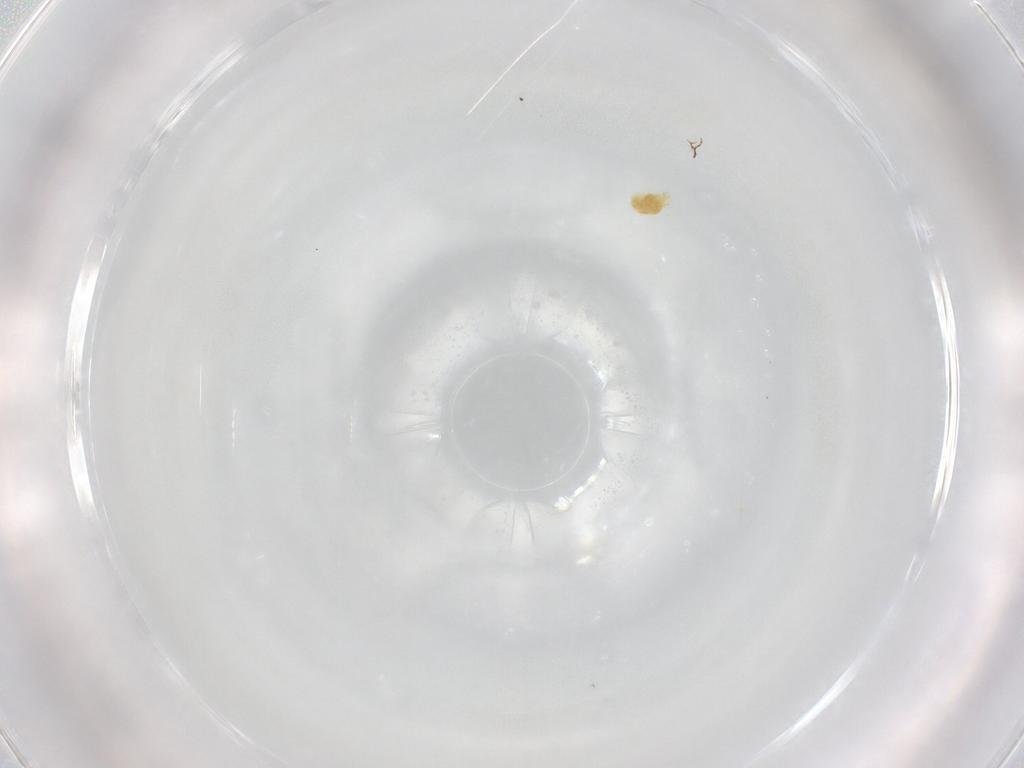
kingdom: Animalia
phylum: Arthropoda
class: Arachnida
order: Trombidiformes
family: Eupodidae
